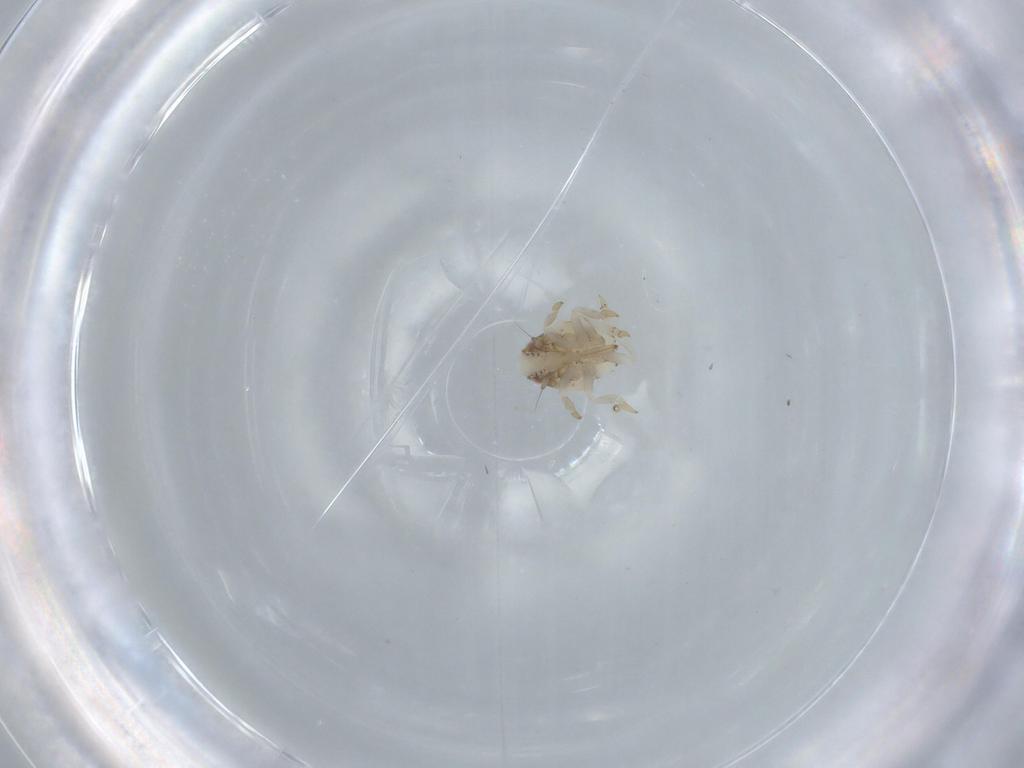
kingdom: Animalia
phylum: Arthropoda
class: Insecta
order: Hemiptera
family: Acanaloniidae
